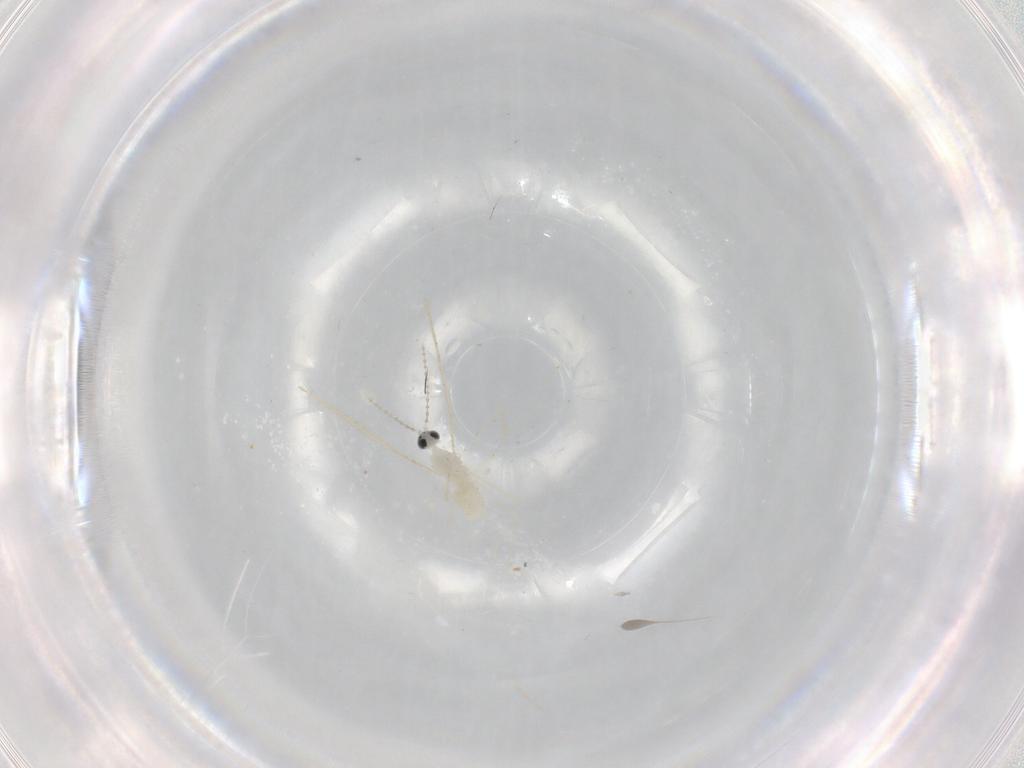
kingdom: Animalia
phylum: Arthropoda
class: Insecta
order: Diptera
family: Cecidomyiidae
